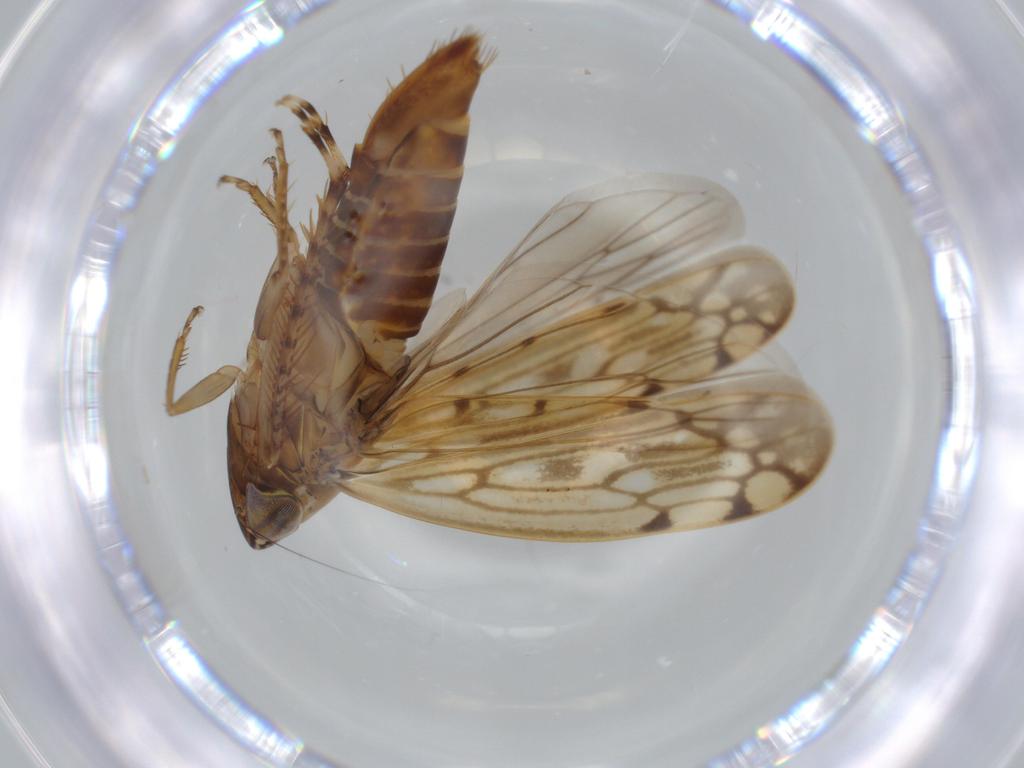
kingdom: Animalia
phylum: Arthropoda
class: Insecta
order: Hemiptera
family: Cicadellidae
